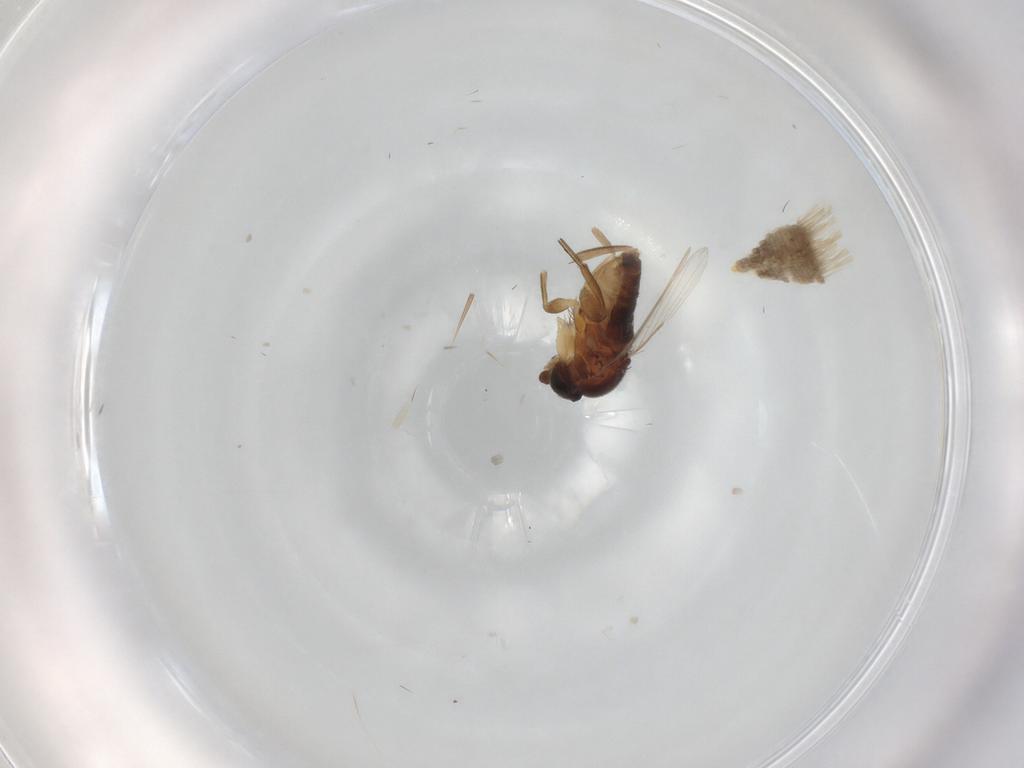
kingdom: Animalia
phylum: Arthropoda
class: Insecta
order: Diptera
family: Phoridae
